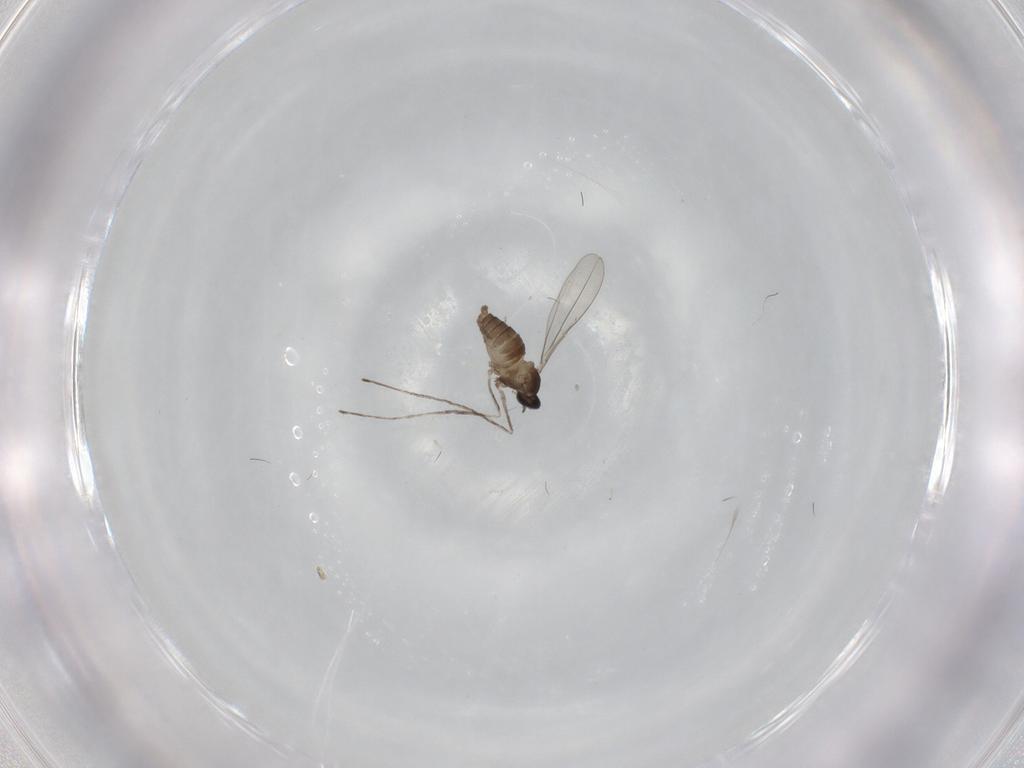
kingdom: Animalia
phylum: Arthropoda
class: Insecta
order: Diptera
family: Cecidomyiidae
